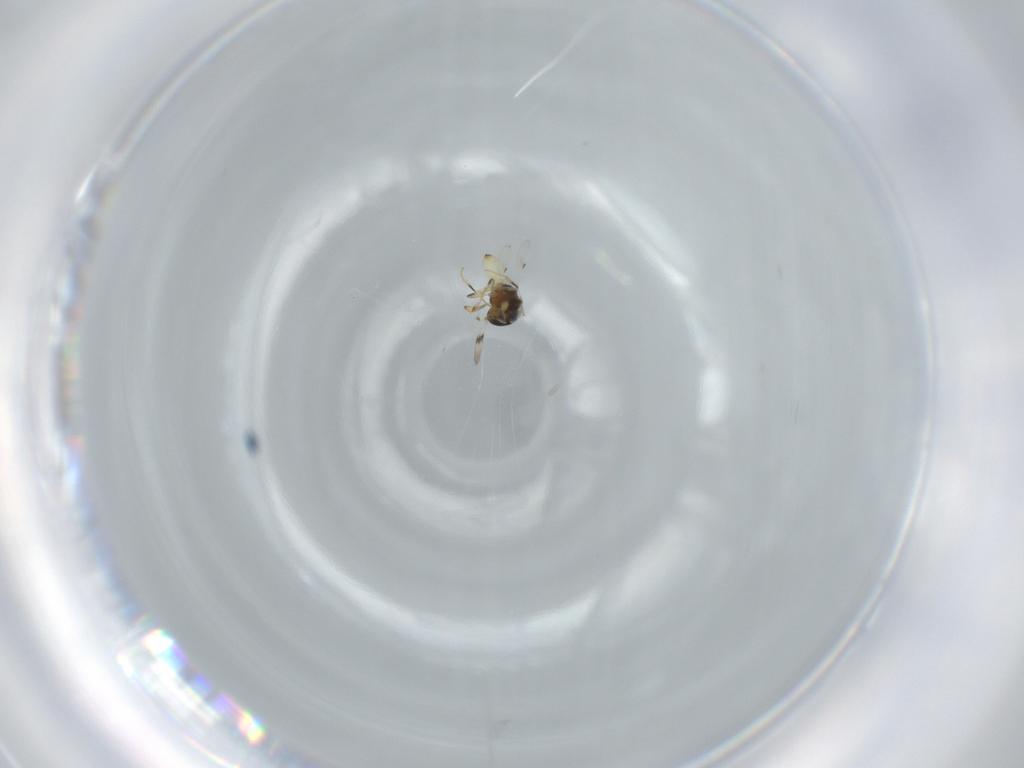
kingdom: Animalia
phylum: Arthropoda
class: Insecta
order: Hymenoptera
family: Scelionidae
